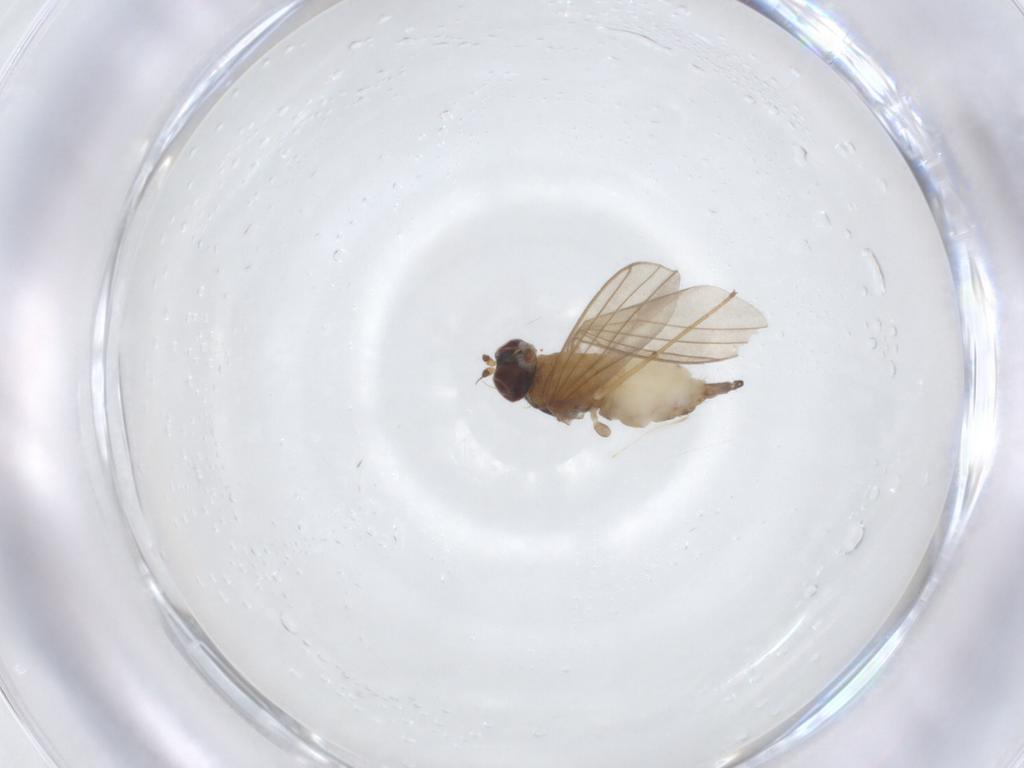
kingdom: Animalia
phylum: Arthropoda
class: Insecta
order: Diptera
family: Dolichopodidae
